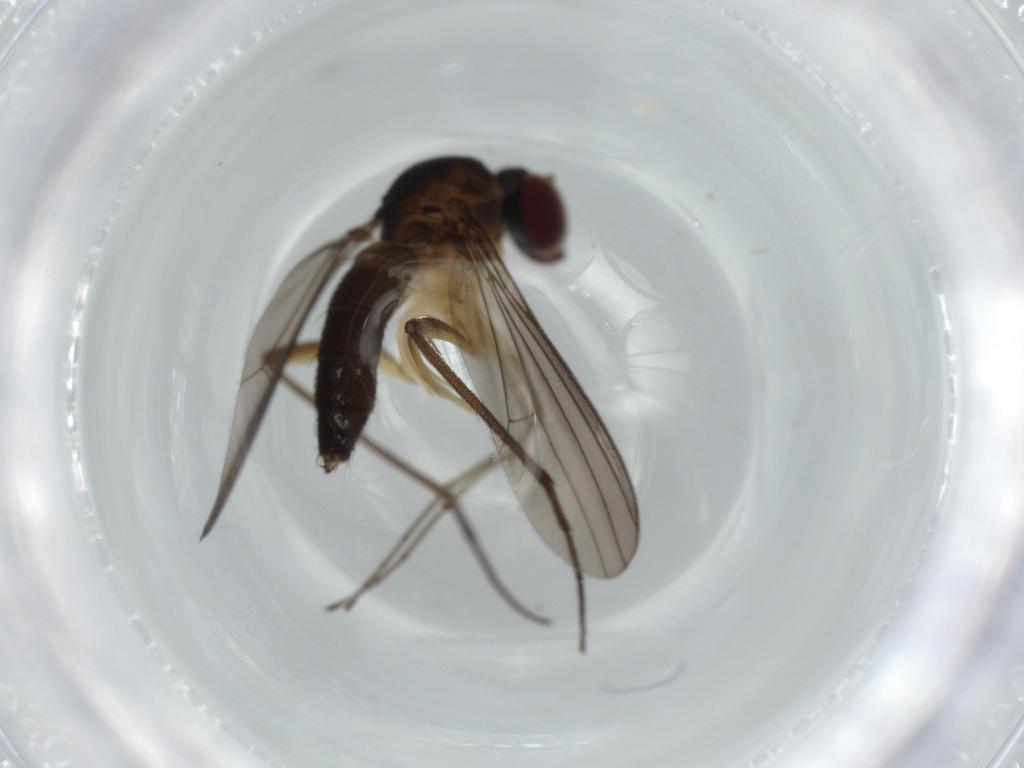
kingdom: Animalia
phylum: Arthropoda
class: Insecta
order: Diptera
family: Dolichopodidae
